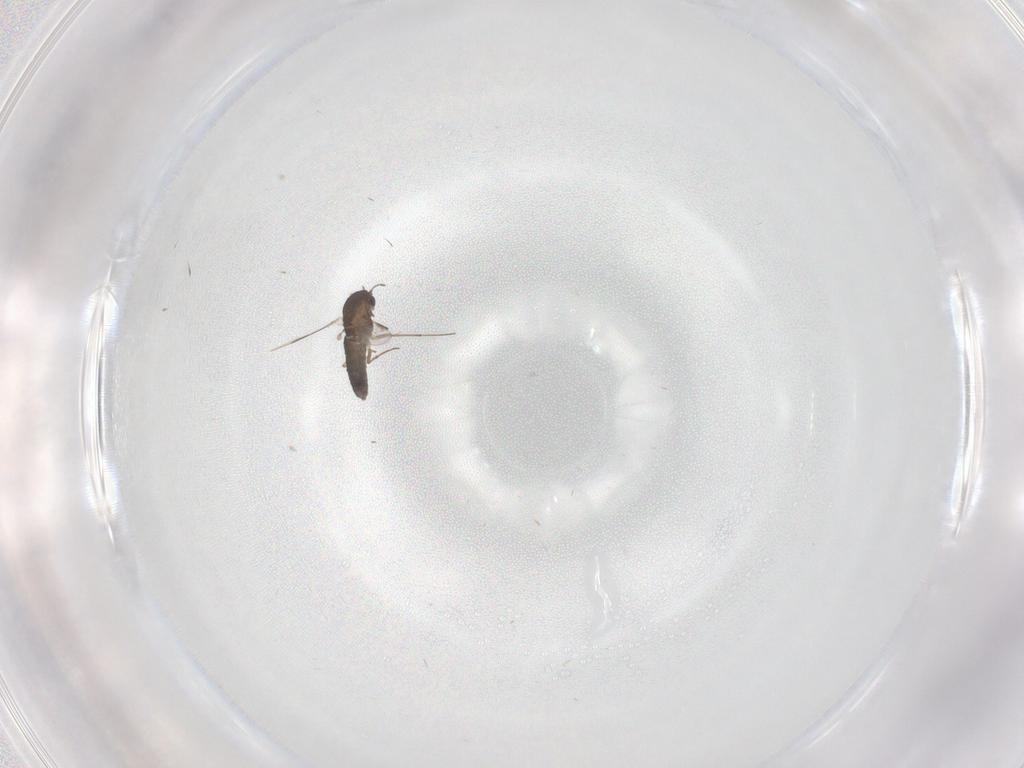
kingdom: Animalia
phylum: Arthropoda
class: Insecta
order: Diptera
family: Chironomidae
